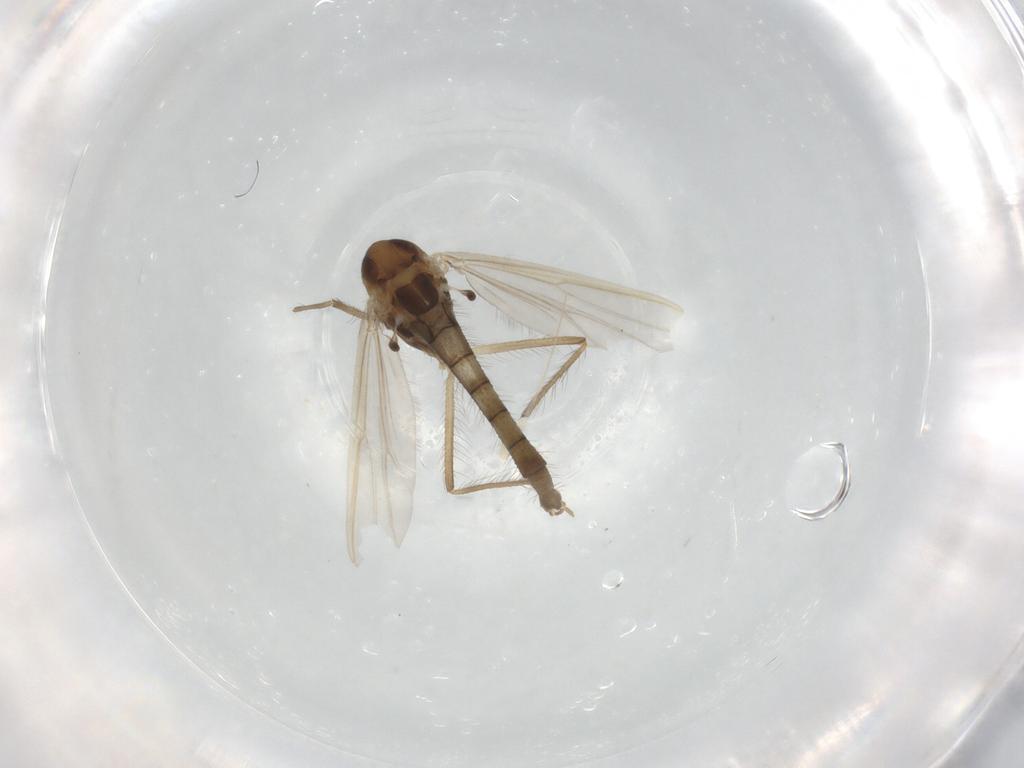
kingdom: Animalia
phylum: Arthropoda
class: Insecta
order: Diptera
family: Chironomidae
